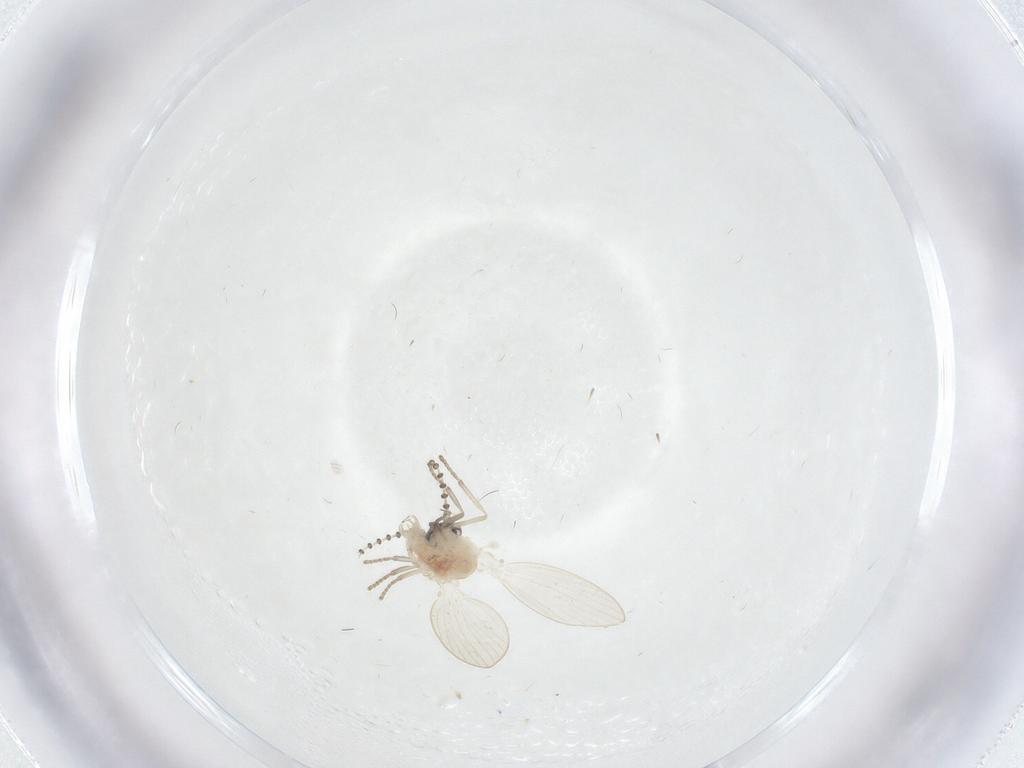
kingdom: Animalia
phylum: Arthropoda
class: Insecta
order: Diptera
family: Psychodidae
